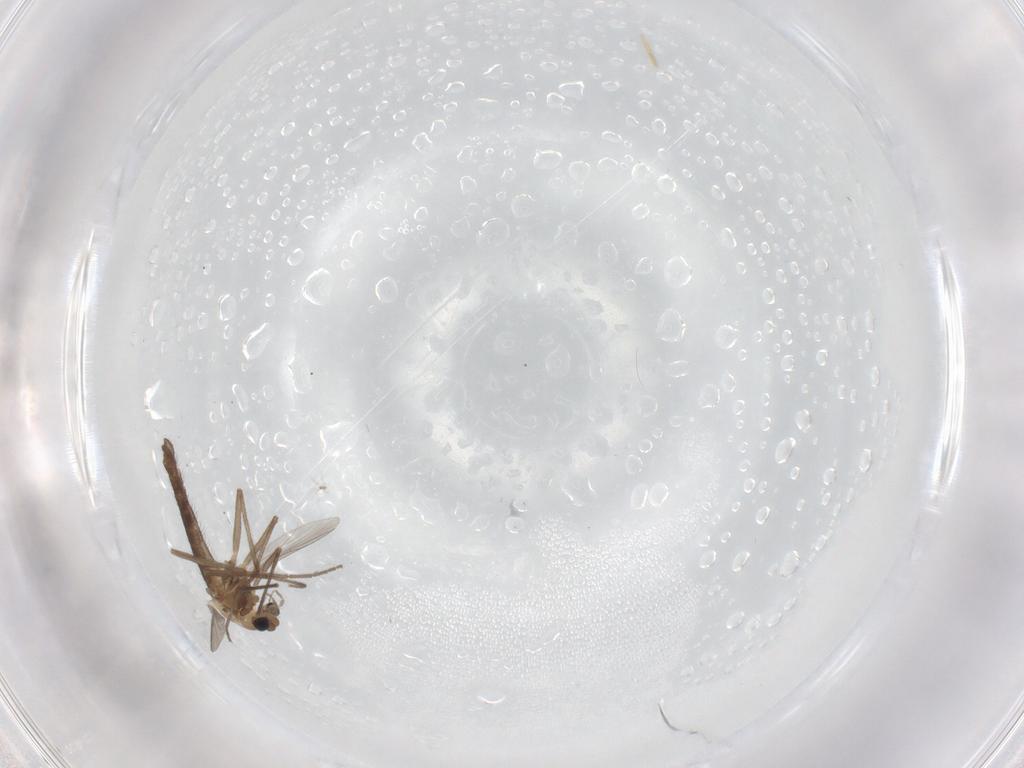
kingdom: Animalia
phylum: Arthropoda
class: Insecta
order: Diptera
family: Chironomidae
